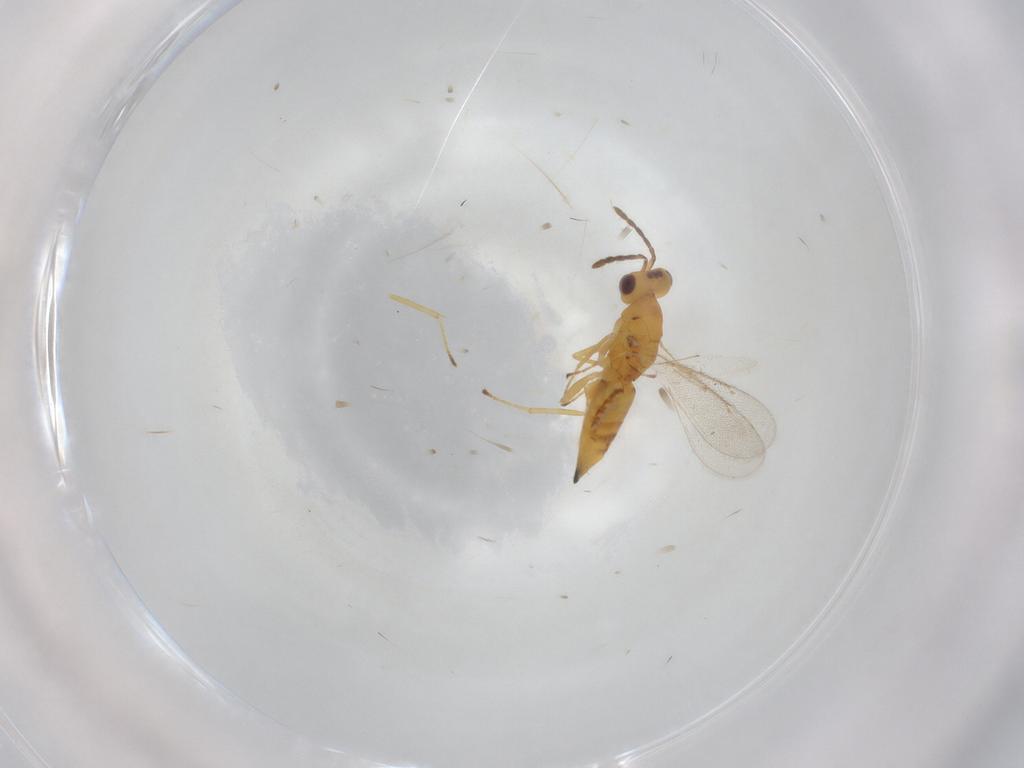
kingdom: Animalia
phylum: Arthropoda
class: Insecta
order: Hymenoptera
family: Eulophidae
